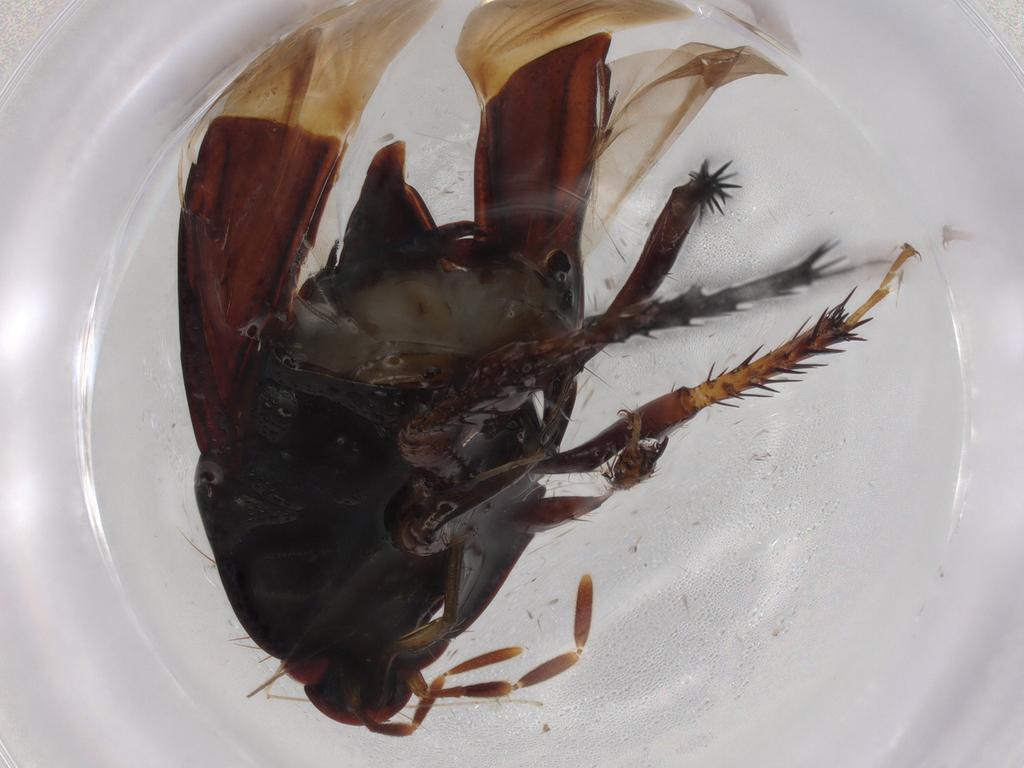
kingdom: Animalia
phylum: Arthropoda
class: Insecta
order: Hemiptera
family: Cydnidae
